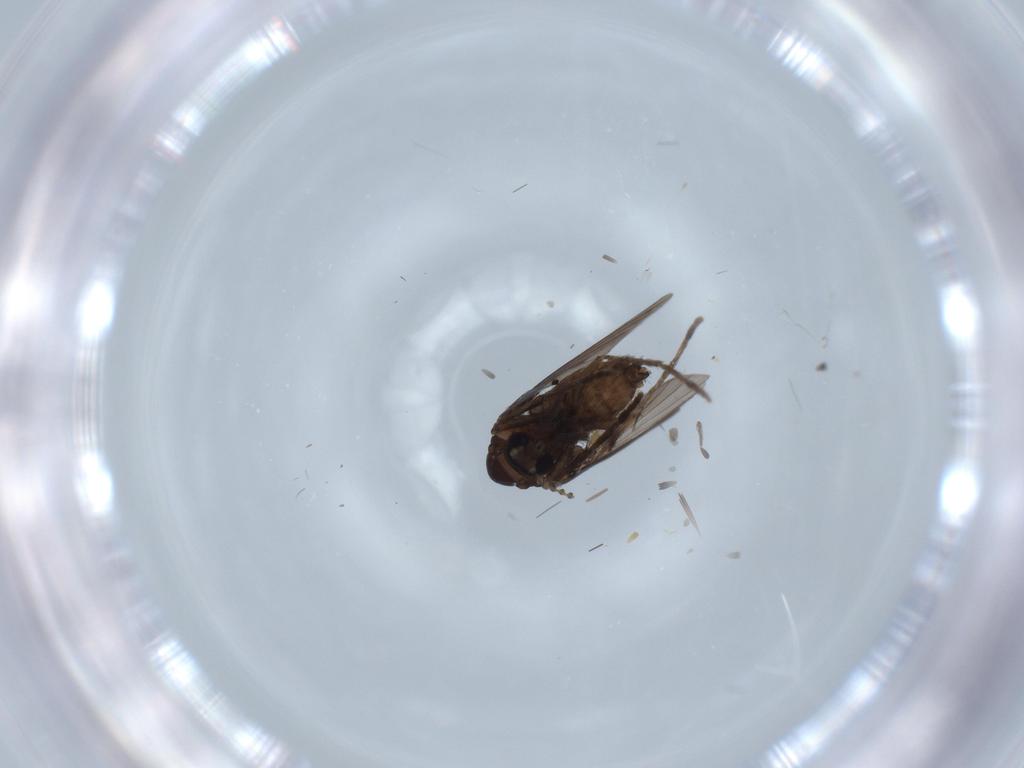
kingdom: Animalia
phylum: Arthropoda
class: Insecta
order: Diptera
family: Psychodidae
